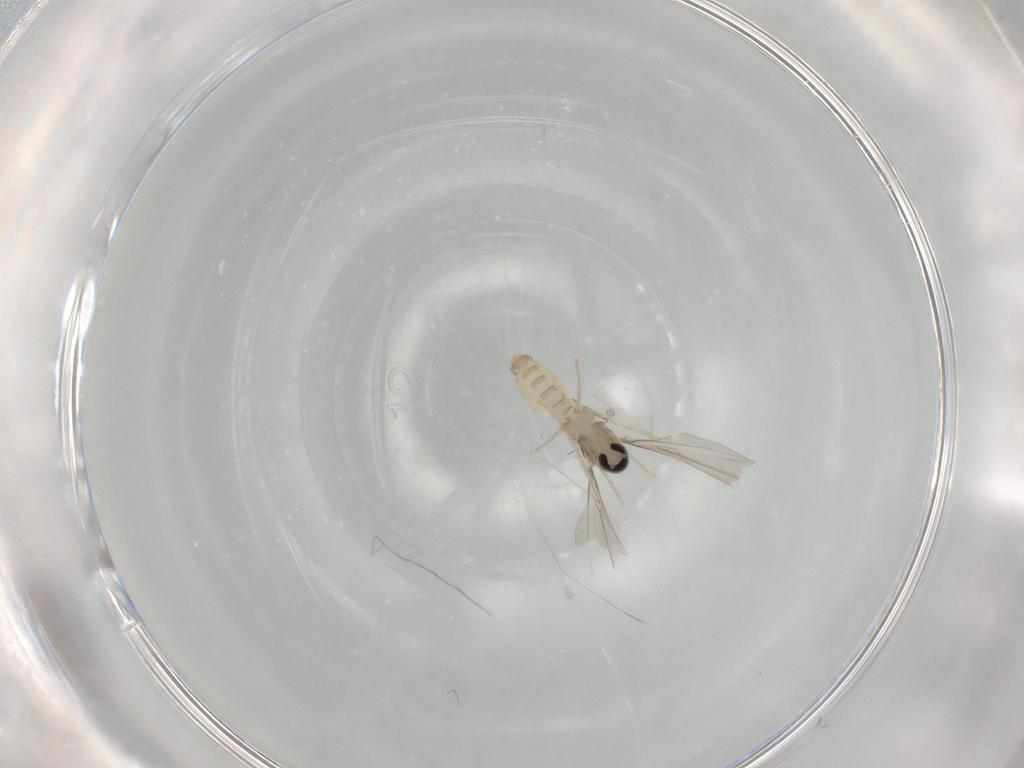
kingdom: Animalia
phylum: Arthropoda
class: Insecta
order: Diptera
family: Cecidomyiidae
